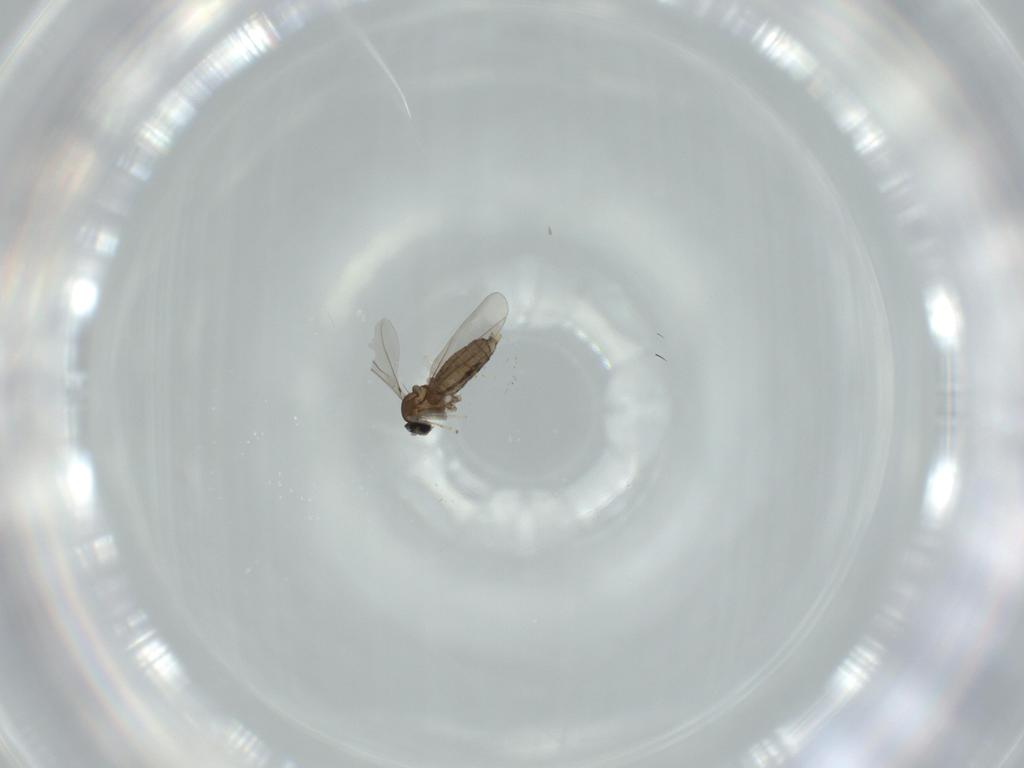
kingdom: Animalia
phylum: Arthropoda
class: Insecta
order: Diptera
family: Cecidomyiidae
